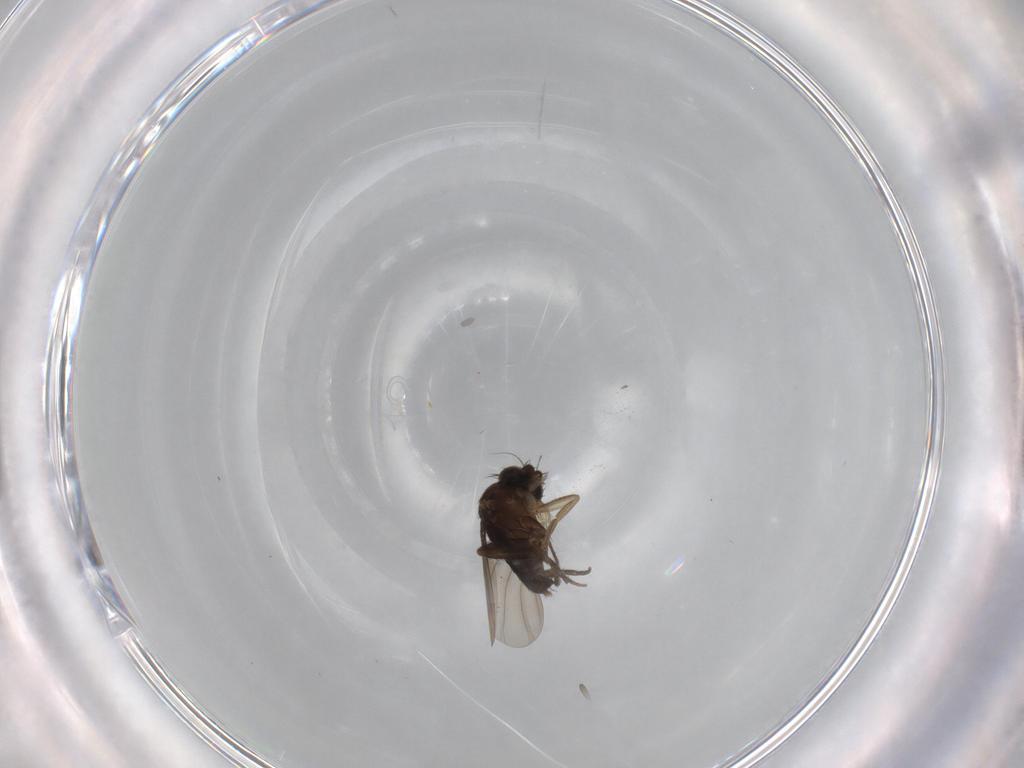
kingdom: Animalia
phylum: Arthropoda
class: Insecta
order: Diptera
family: Phoridae
